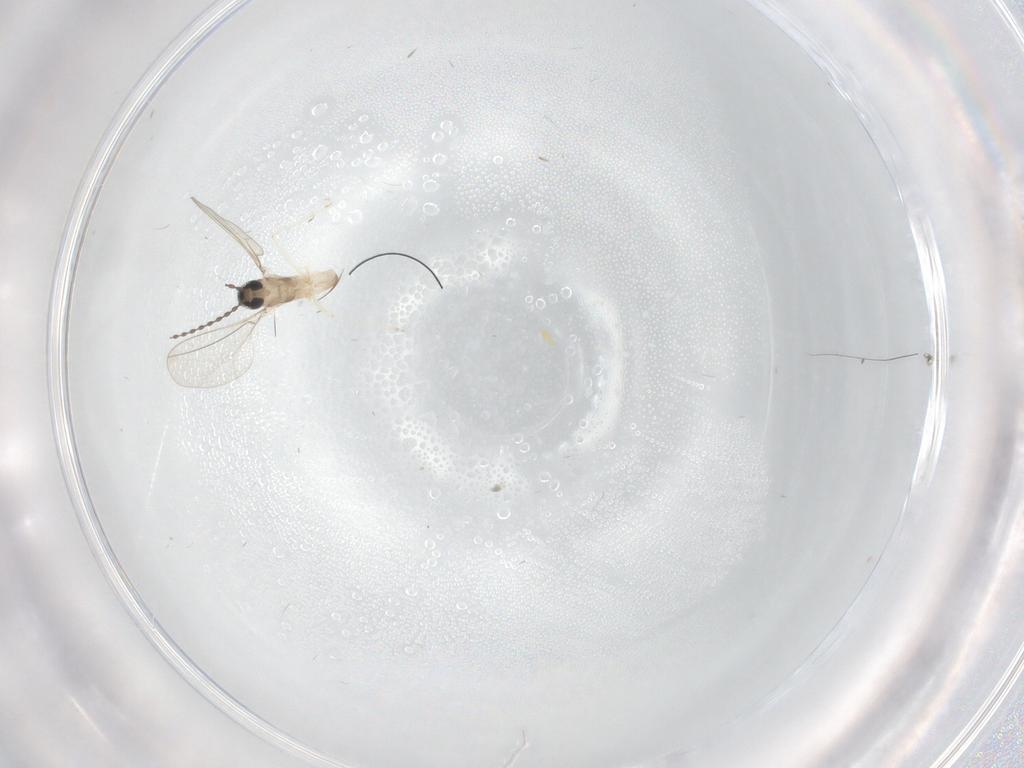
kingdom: Animalia
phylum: Arthropoda
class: Insecta
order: Diptera
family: Cecidomyiidae
